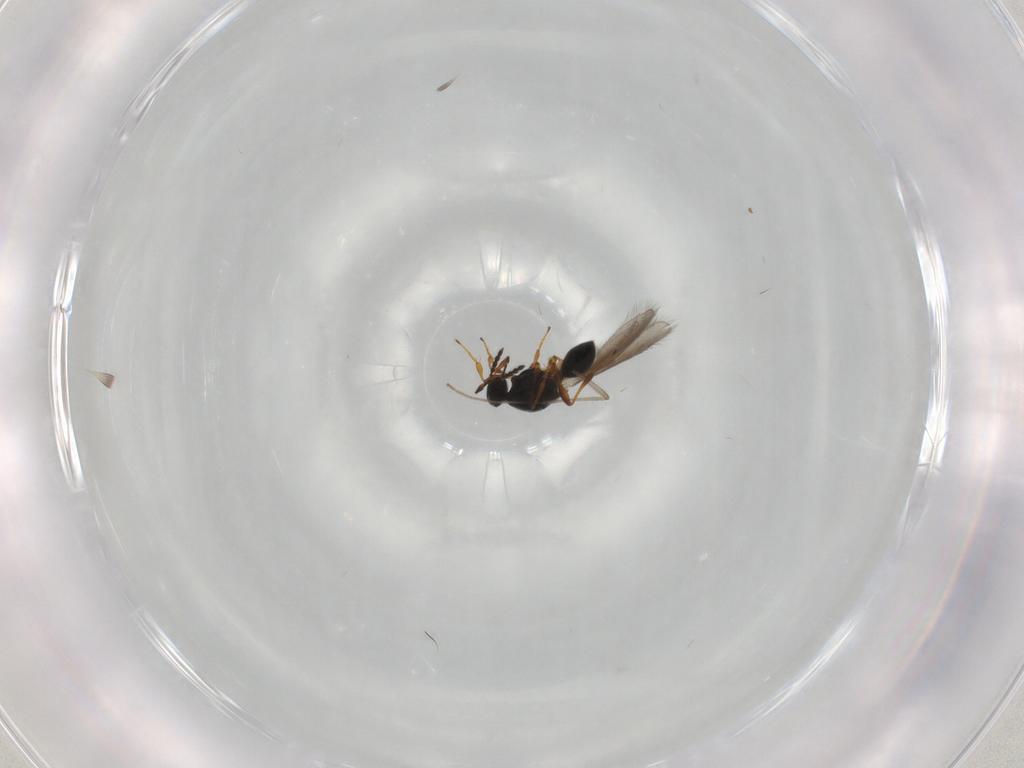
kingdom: Animalia
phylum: Arthropoda
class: Insecta
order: Hymenoptera
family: Platygastridae
